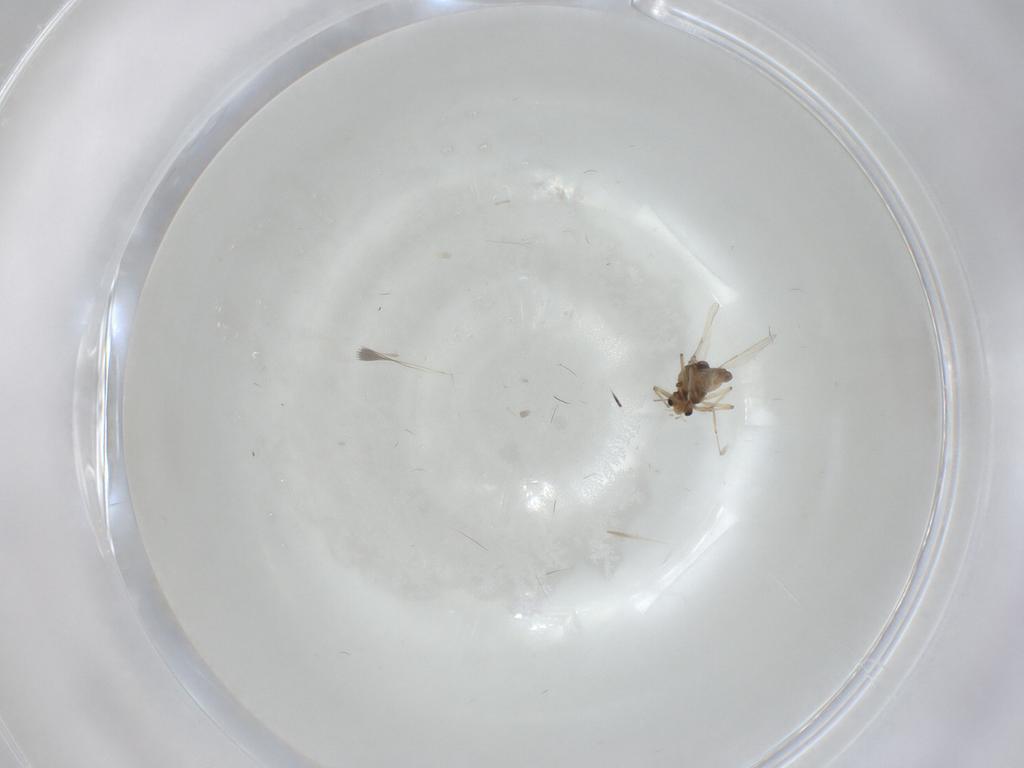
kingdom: Animalia
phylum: Arthropoda
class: Insecta
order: Diptera
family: Chironomidae
